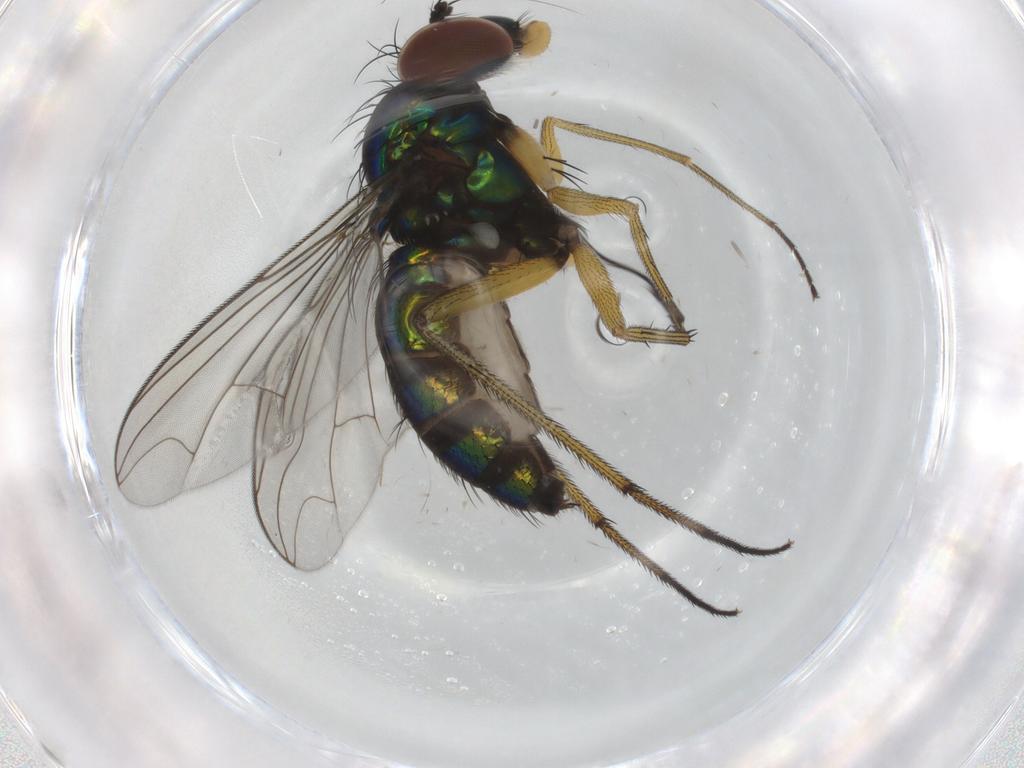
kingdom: Animalia
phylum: Arthropoda
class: Insecta
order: Diptera
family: Dolichopodidae
